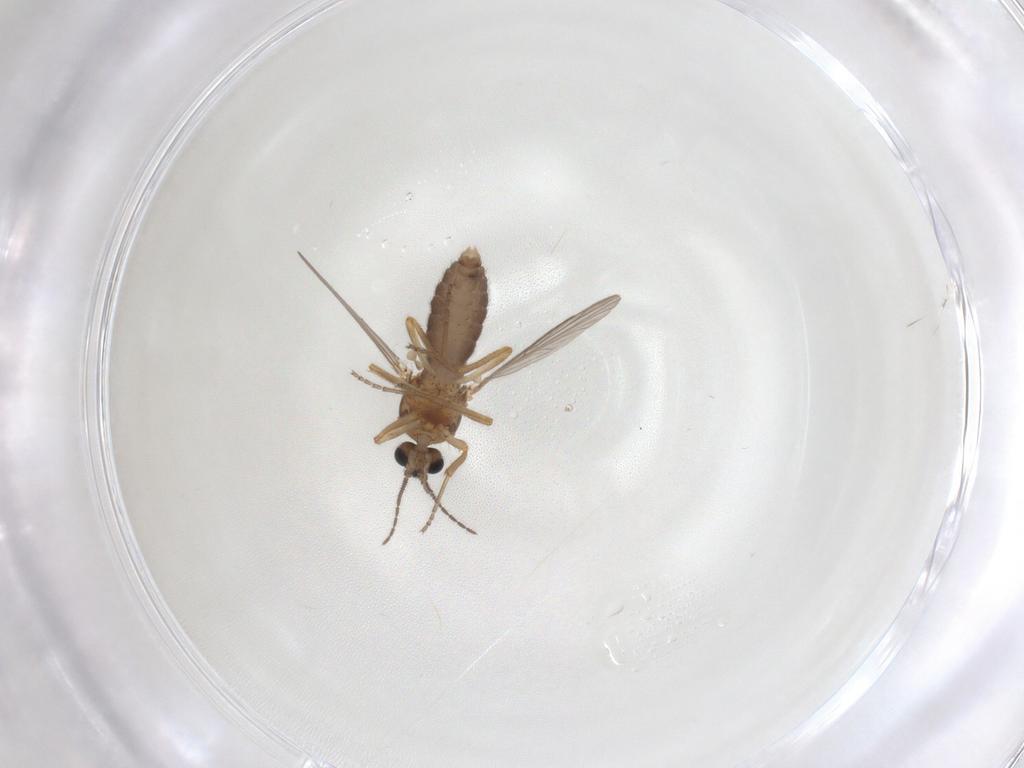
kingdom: Animalia
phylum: Arthropoda
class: Insecta
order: Diptera
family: Ceratopogonidae
